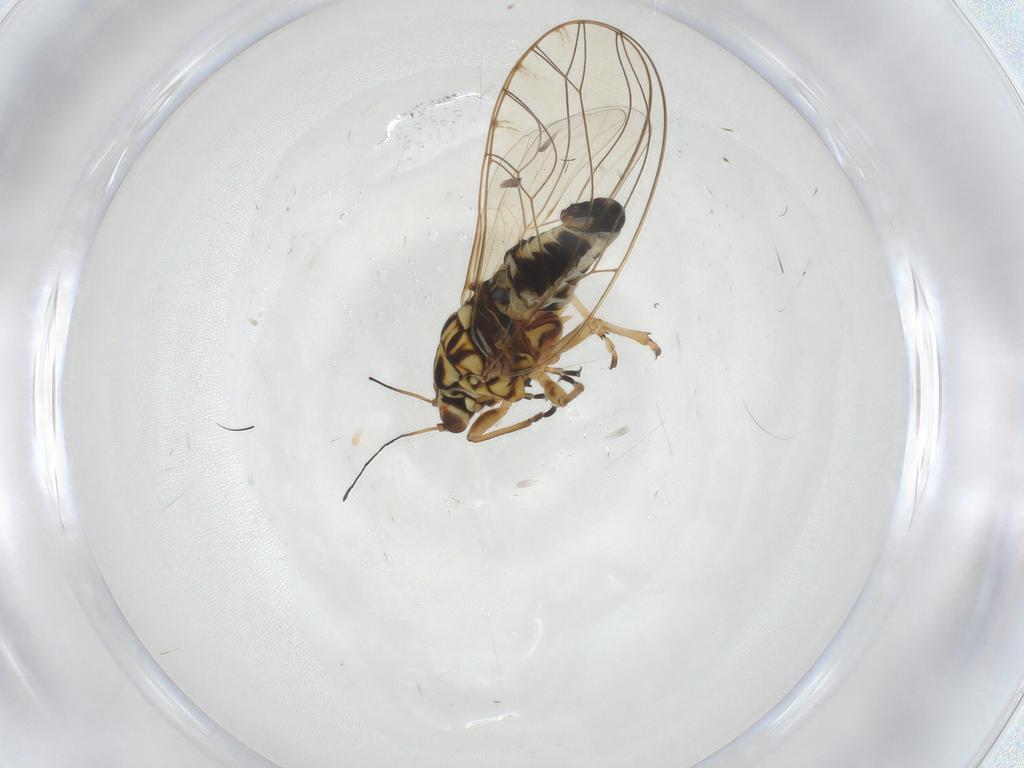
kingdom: Animalia
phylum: Arthropoda
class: Insecta
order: Hemiptera
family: Triozidae
